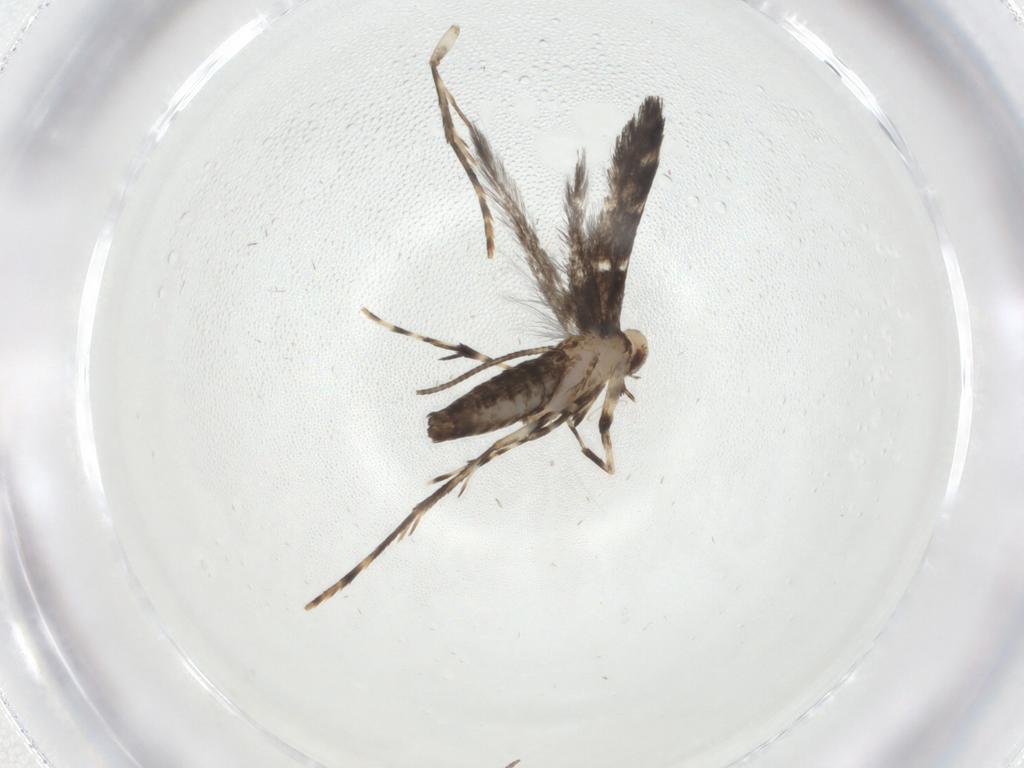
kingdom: Animalia
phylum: Arthropoda
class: Insecta
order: Lepidoptera
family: Gracillariidae
